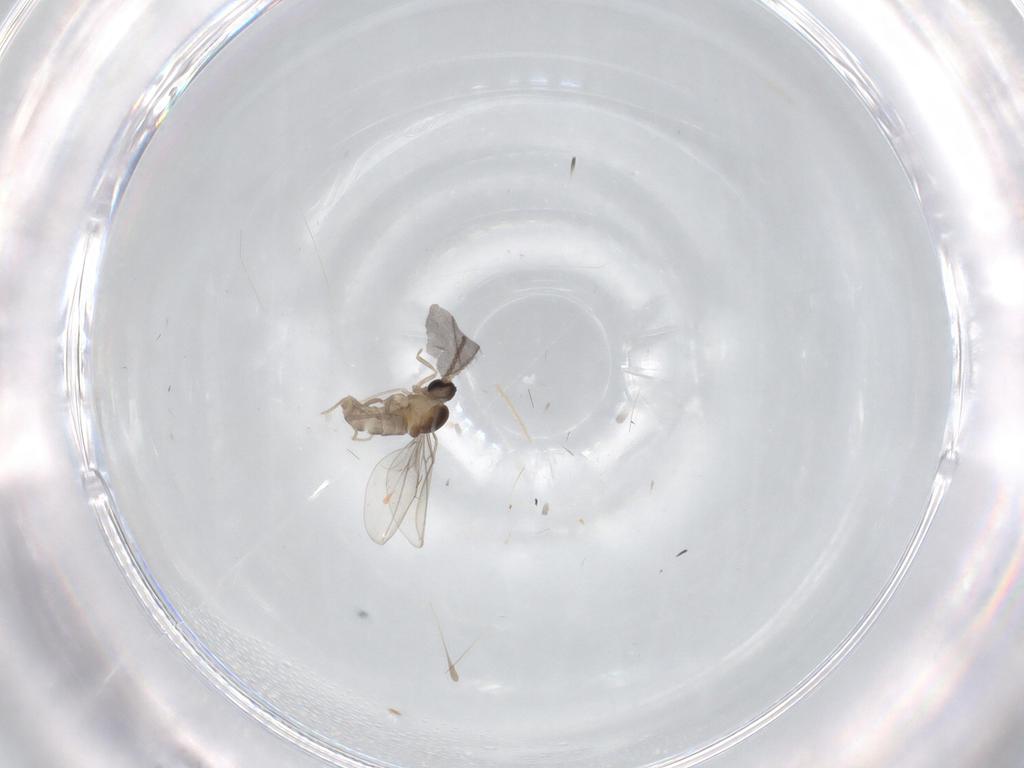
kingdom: Animalia
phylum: Arthropoda
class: Insecta
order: Diptera
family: Cecidomyiidae
